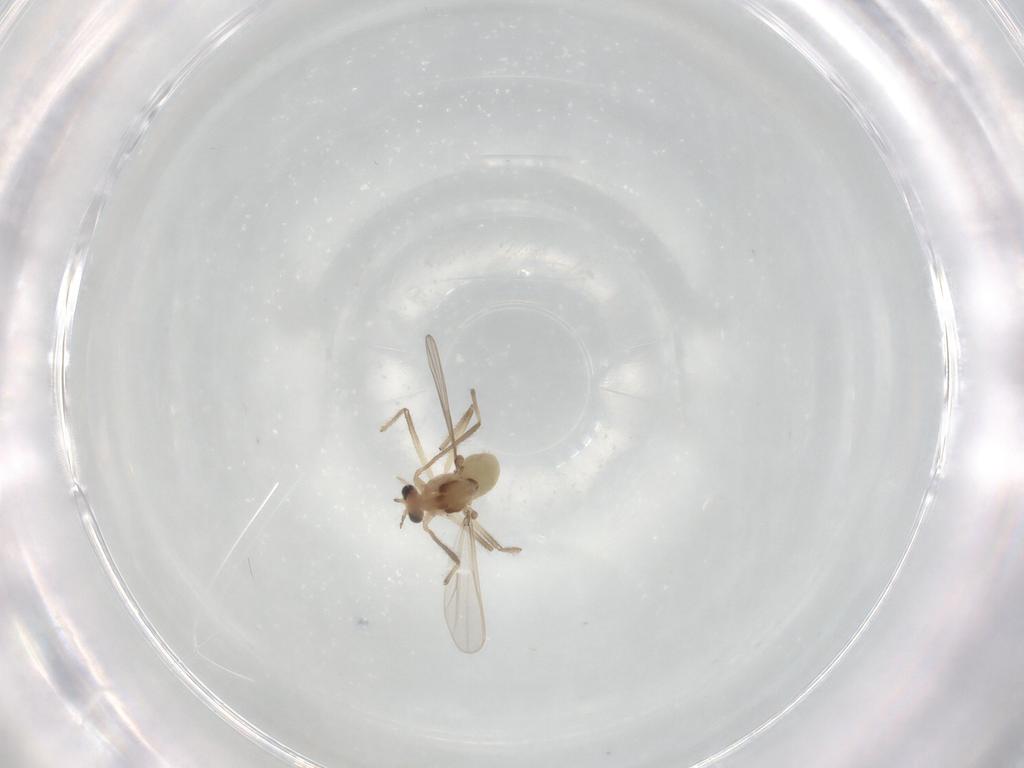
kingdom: Animalia
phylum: Arthropoda
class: Insecta
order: Diptera
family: Chironomidae
